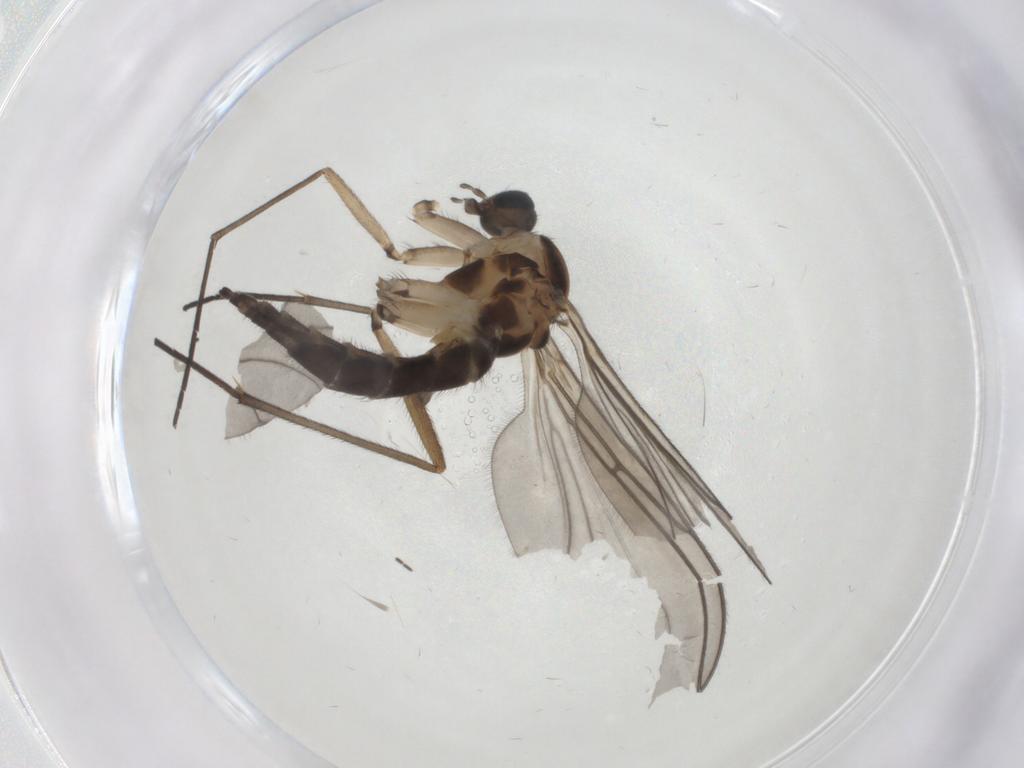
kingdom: Animalia
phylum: Arthropoda
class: Insecta
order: Diptera
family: Sciaridae
